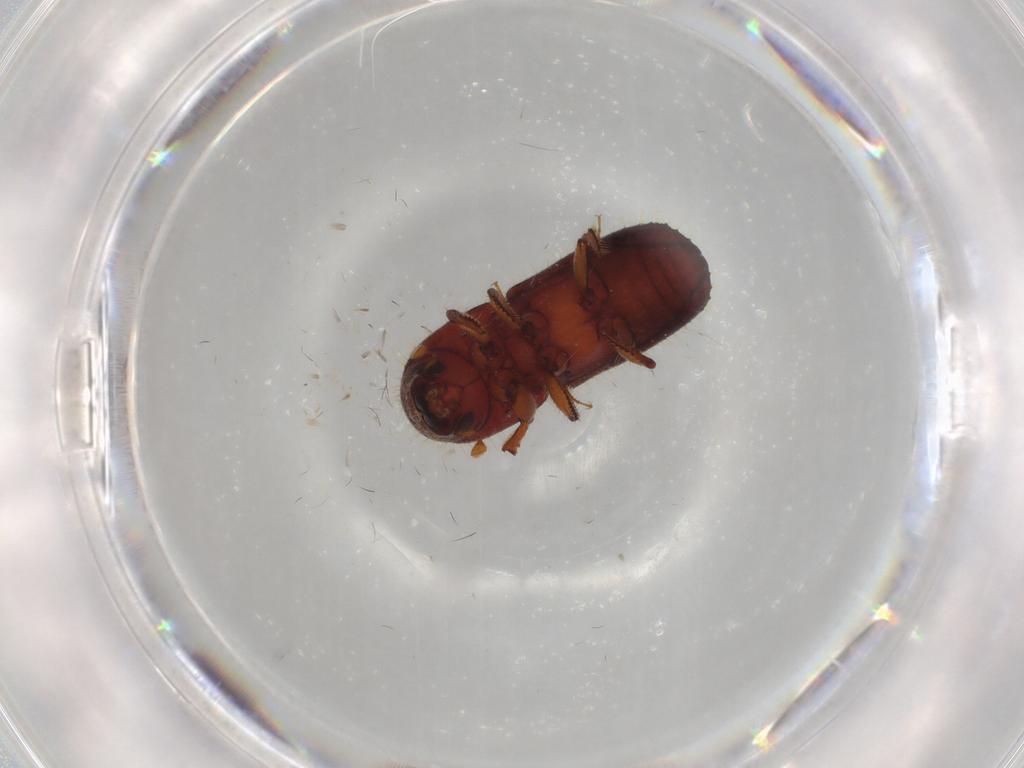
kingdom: Animalia
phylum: Arthropoda
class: Insecta
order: Coleoptera
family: Curculionidae
